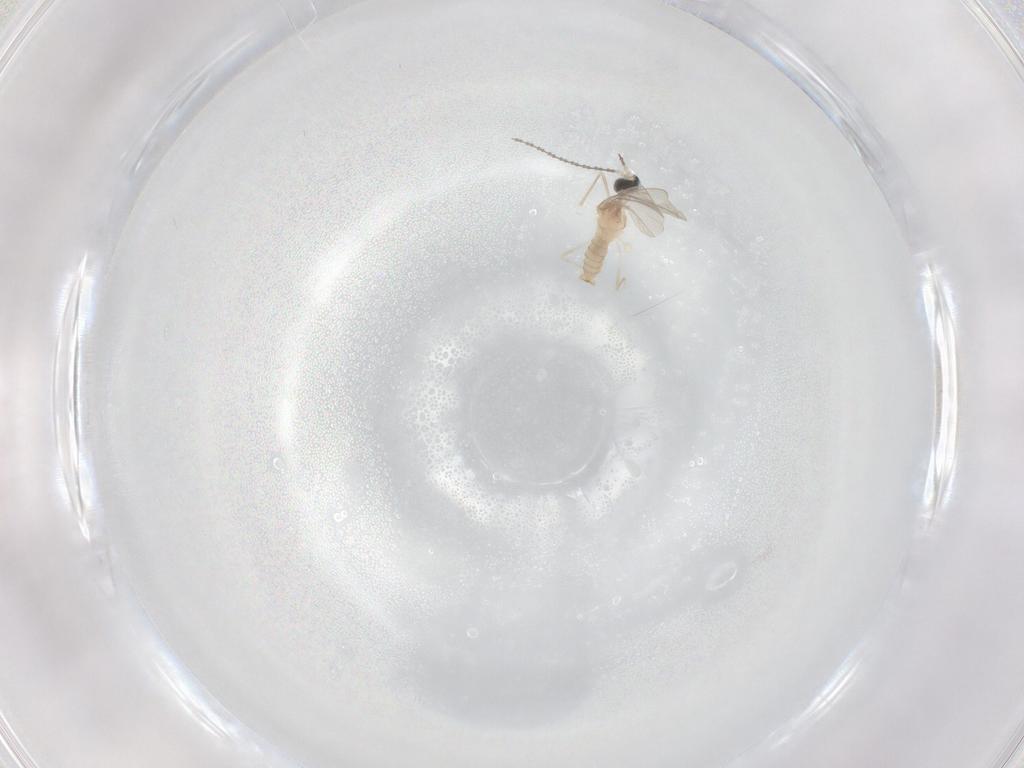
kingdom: Animalia
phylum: Arthropoda
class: Insecta
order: Diptera
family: Cecidomyiidae
